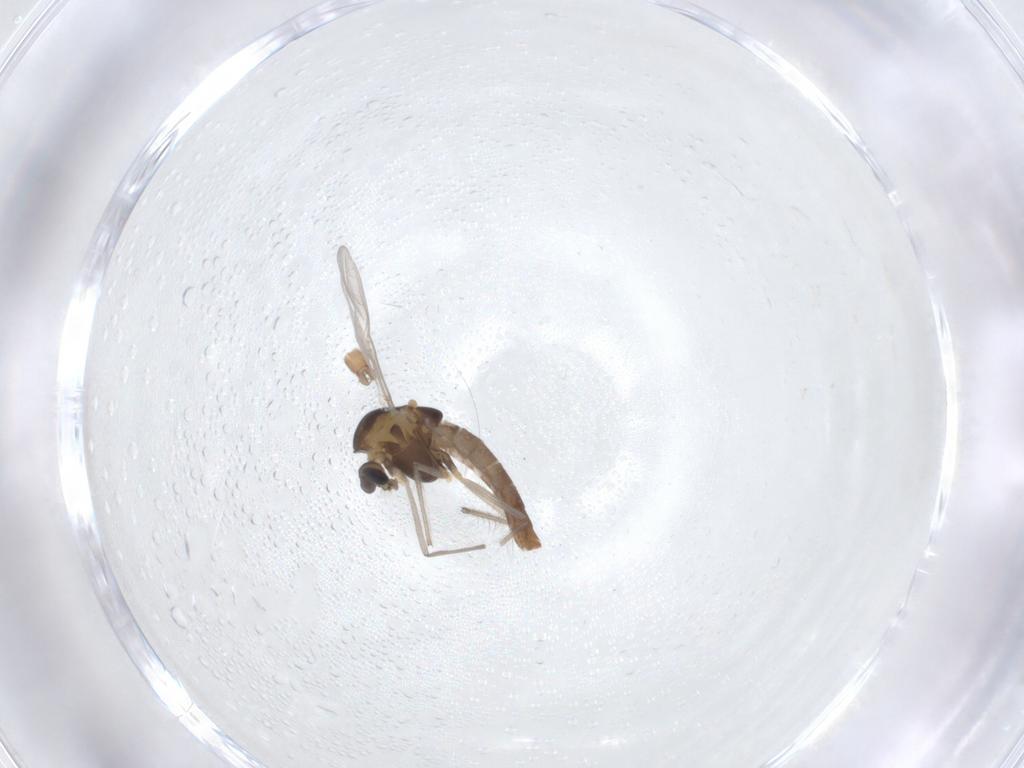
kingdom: Animalia
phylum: Arthropoda
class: Insecta
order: Diptera
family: Chironomidae
